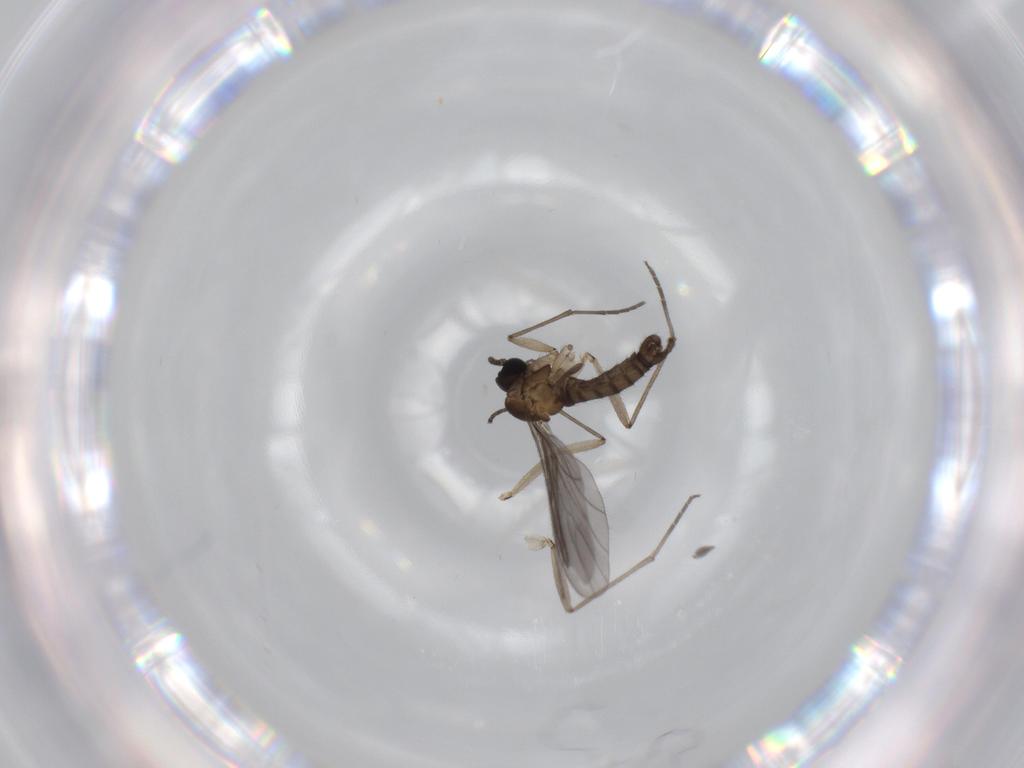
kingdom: Animalia
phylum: Arthropoda
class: Insecta
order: Diptera
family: Sciaridae
